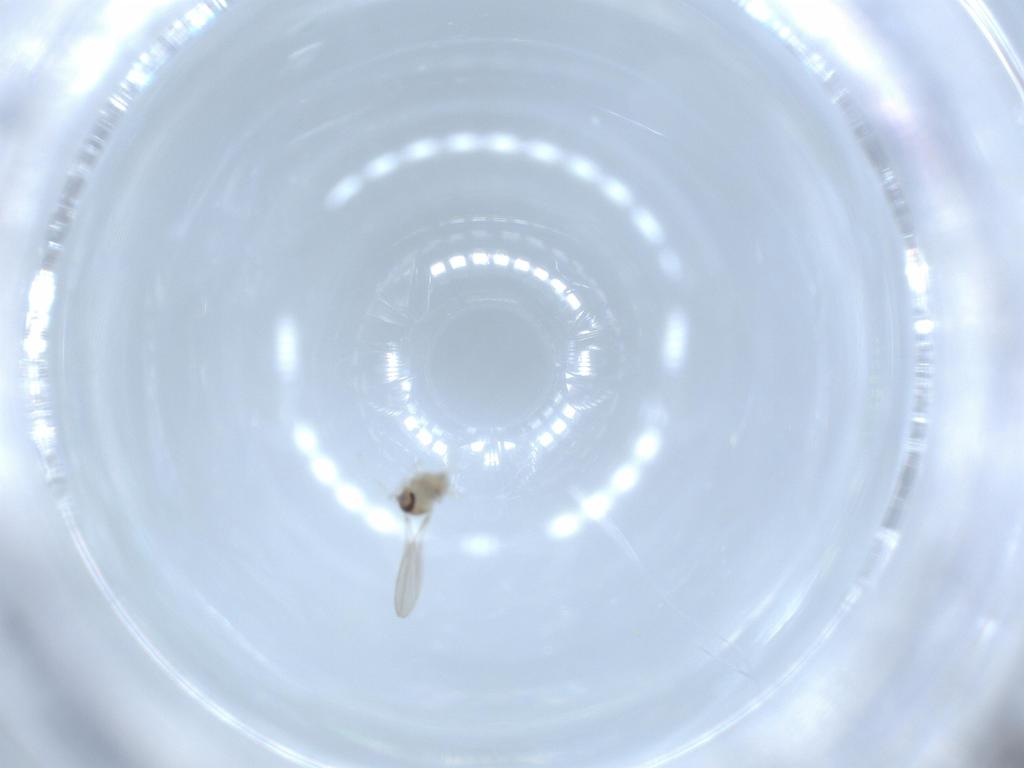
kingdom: Animalia
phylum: Arthropoda
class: Insecta
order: Diptera
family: Cecidomyiidae
